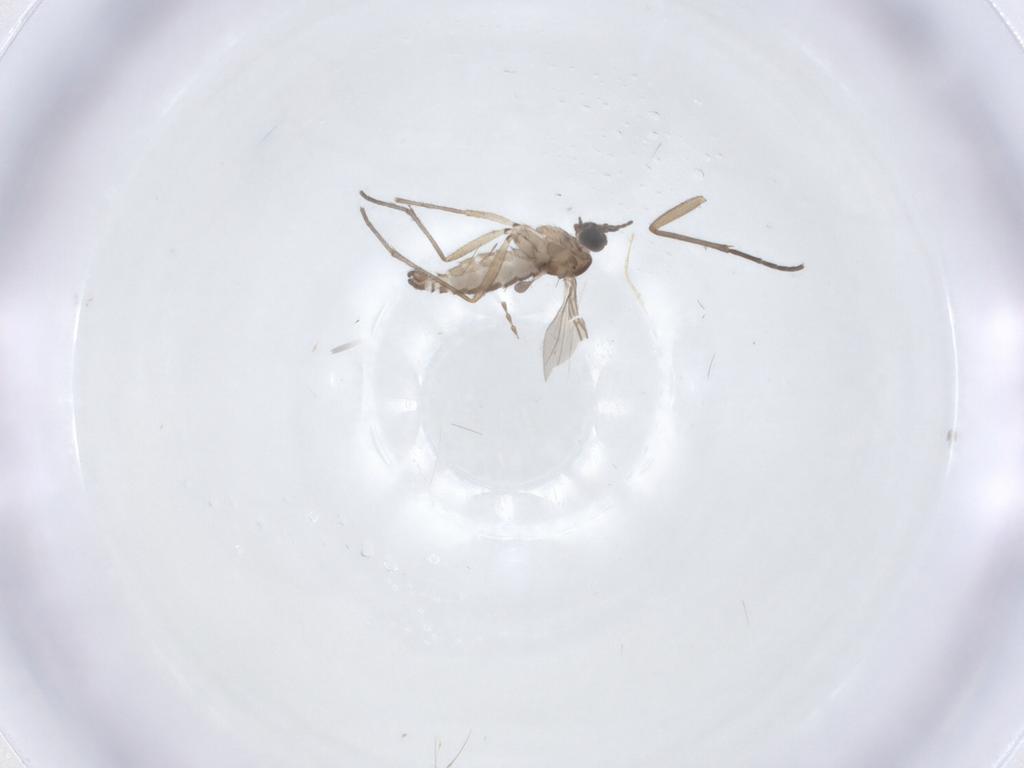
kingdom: Animalia
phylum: Arthropoda
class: Insecta
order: Diptera
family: Sciaridae
